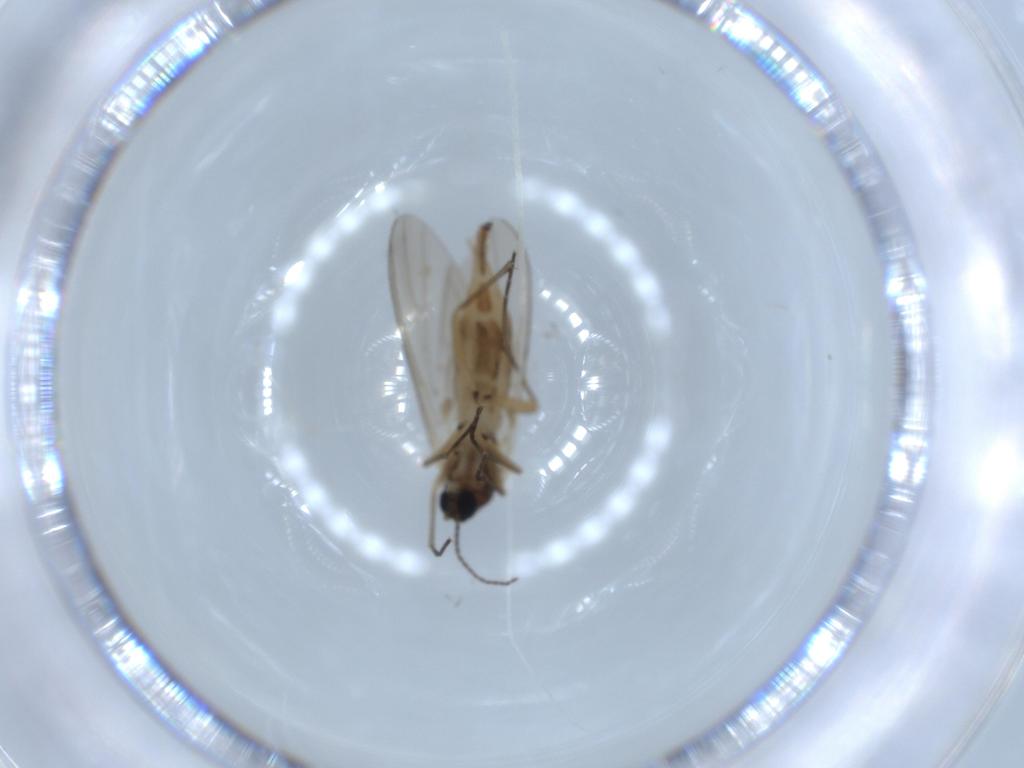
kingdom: Animalia
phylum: Arthropoda
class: Insecta
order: Diptera
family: Sciaridae
